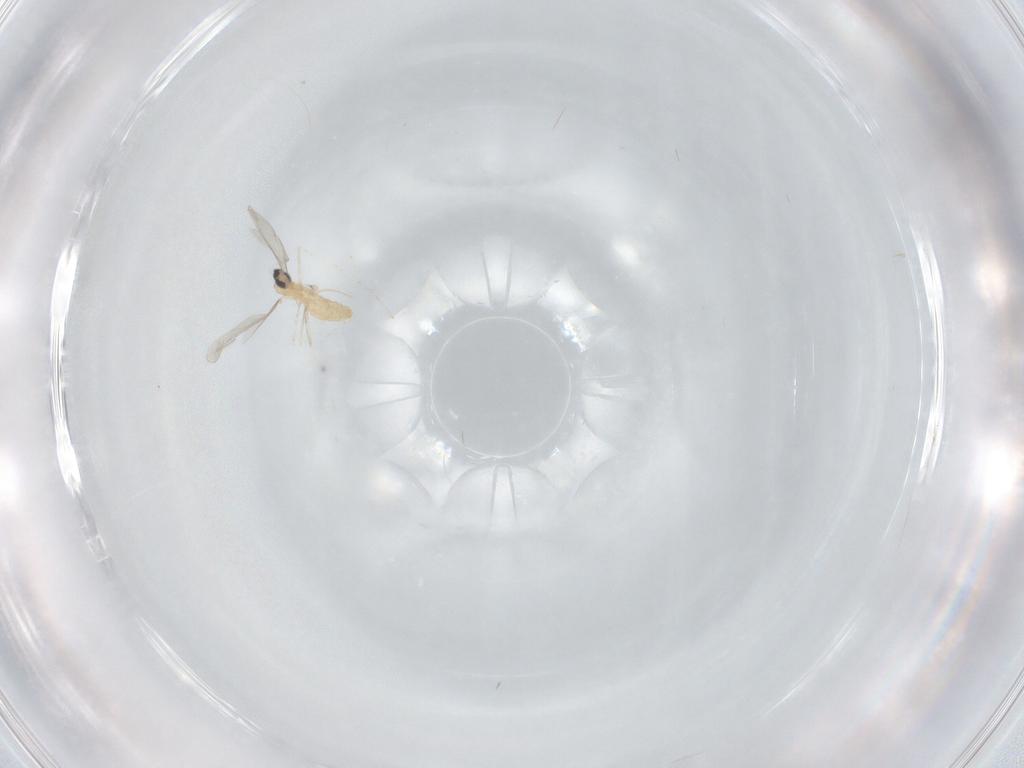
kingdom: Animalia
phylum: Arthropoda
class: Insecta
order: Diptera
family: Cecidomyiidae
